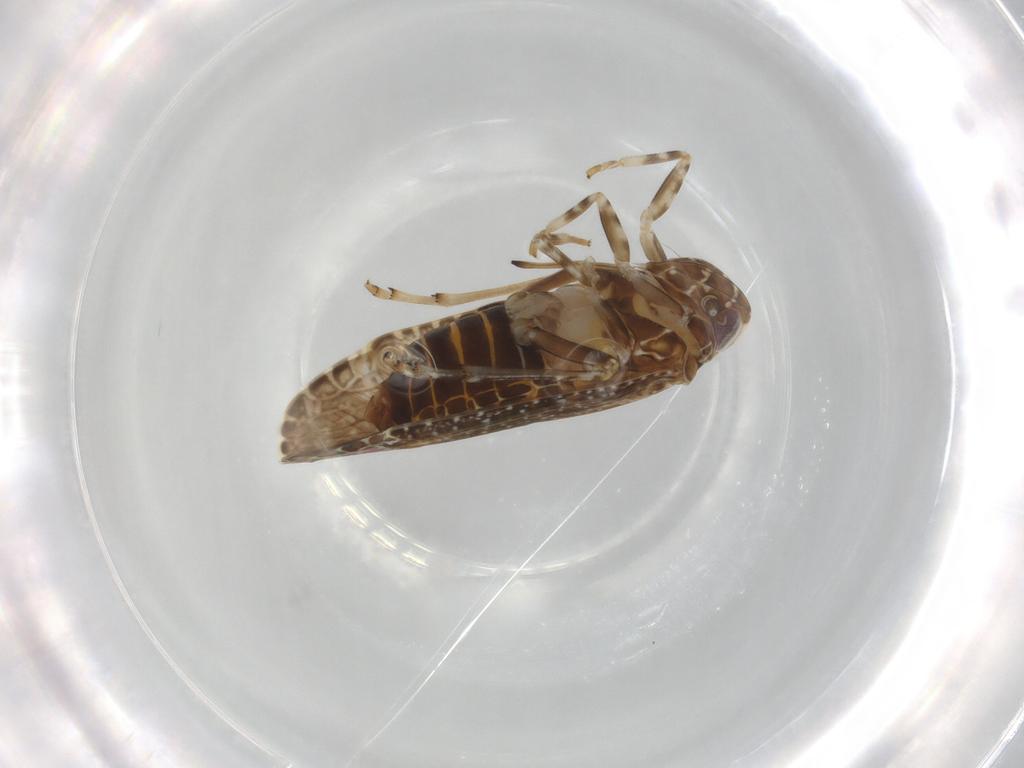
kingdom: Animalia
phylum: Arthropoda
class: Insecta
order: Hemiptera
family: Achilidae
